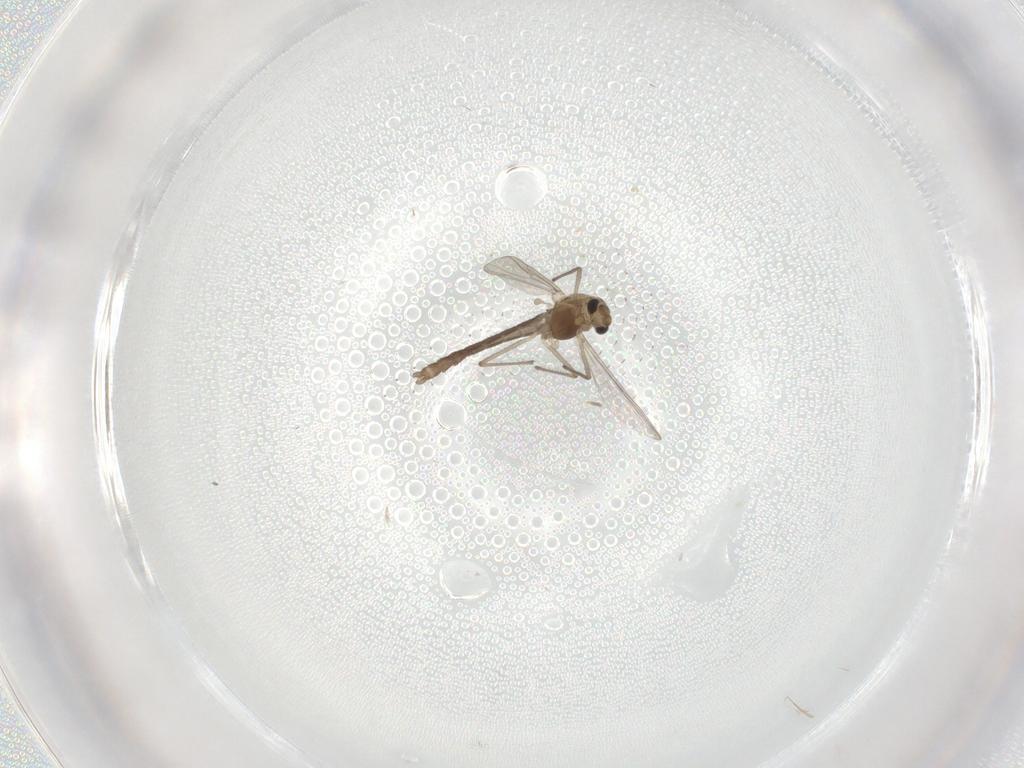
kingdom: Animalia
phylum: Arthropoda
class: Insecta
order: Diptera
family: Chironomidae
